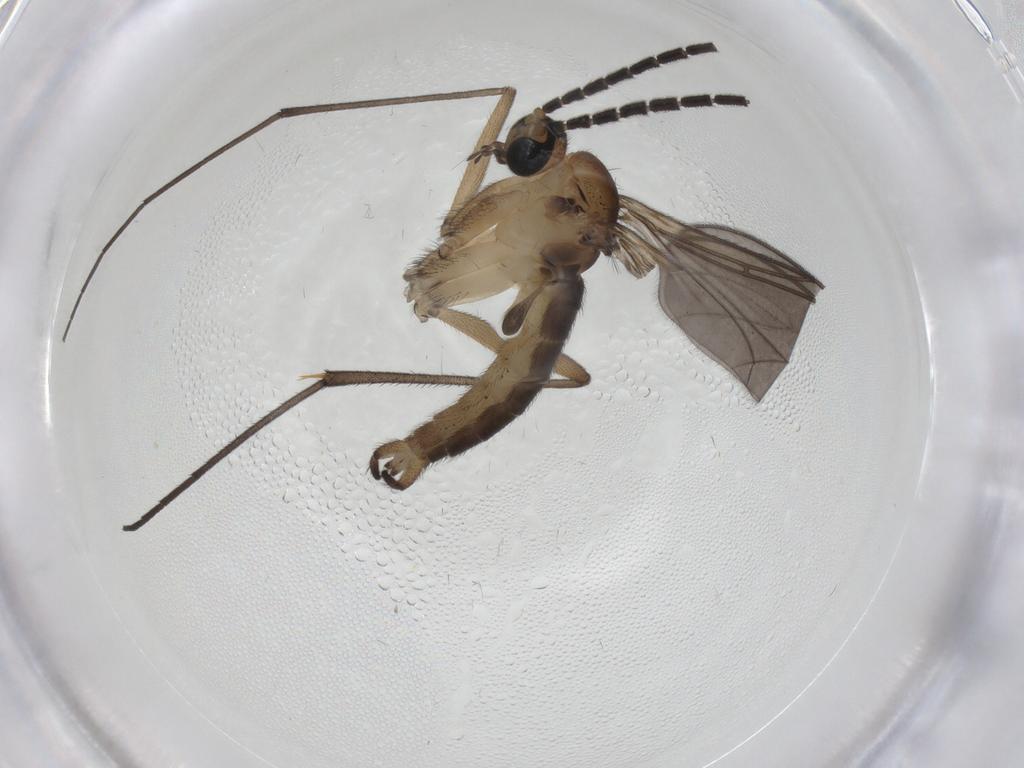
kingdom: Animalia
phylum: Arthropoda
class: Insecta
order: Diptera
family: Sciaridae
